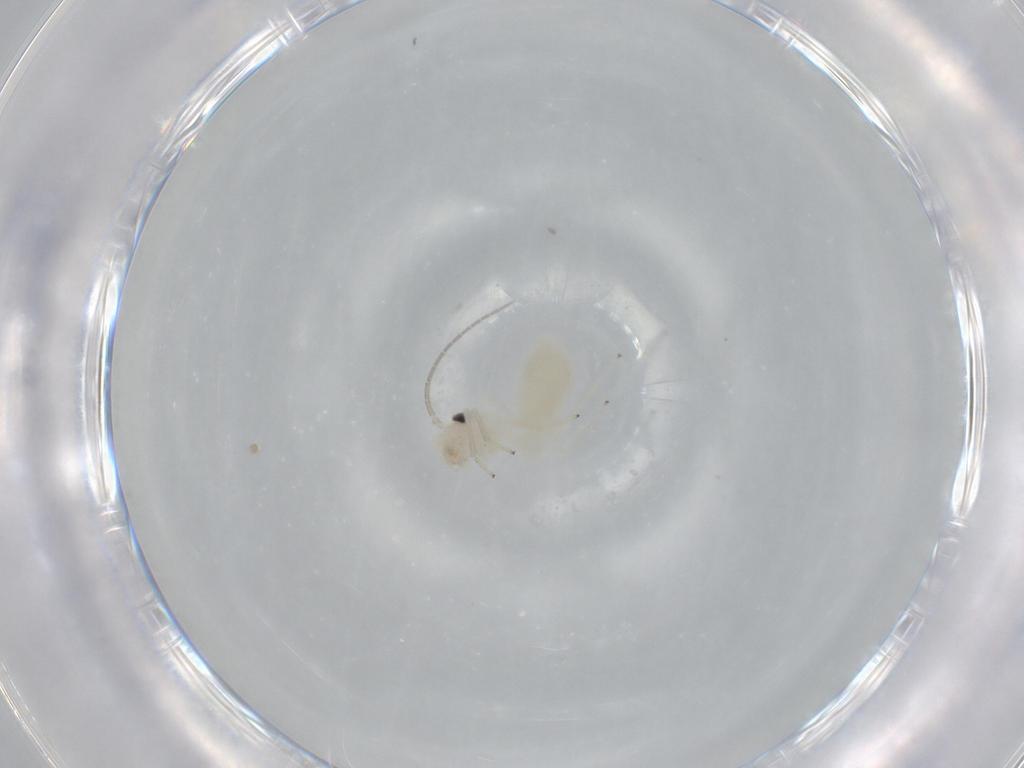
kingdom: Animalia
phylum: Arthropoda
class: Insecta
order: Psocodea
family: Caeciliusidae
